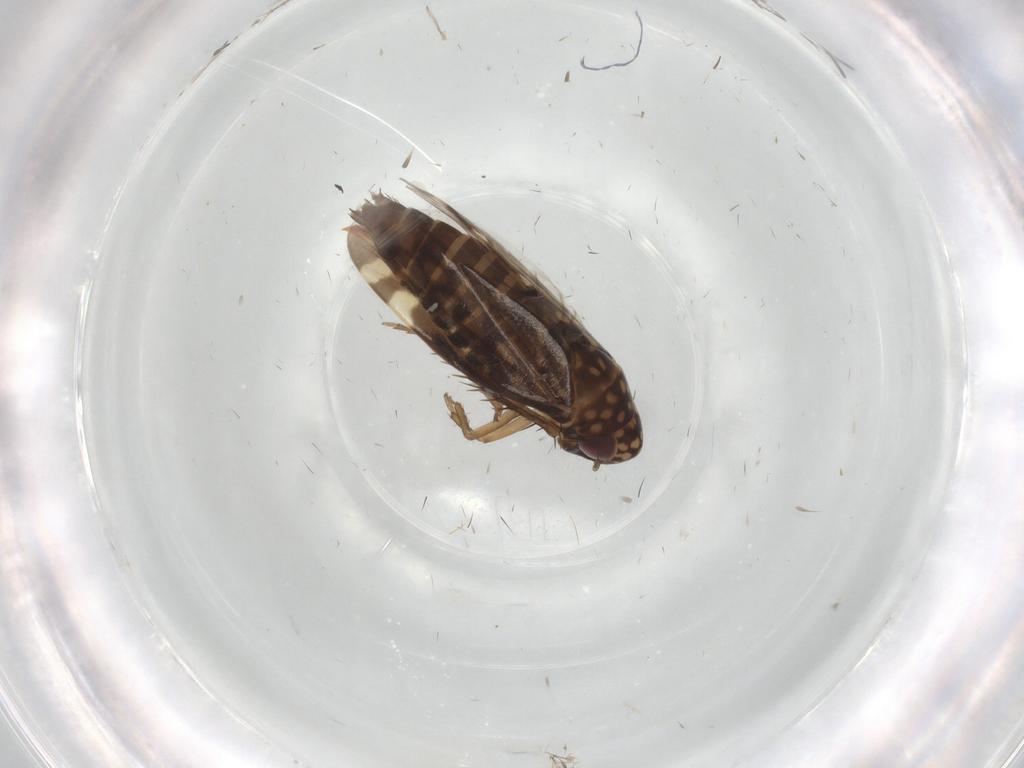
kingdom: Animalia
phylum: Arthropoda
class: Insecta
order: Hemiptera
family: Cicadellidae
